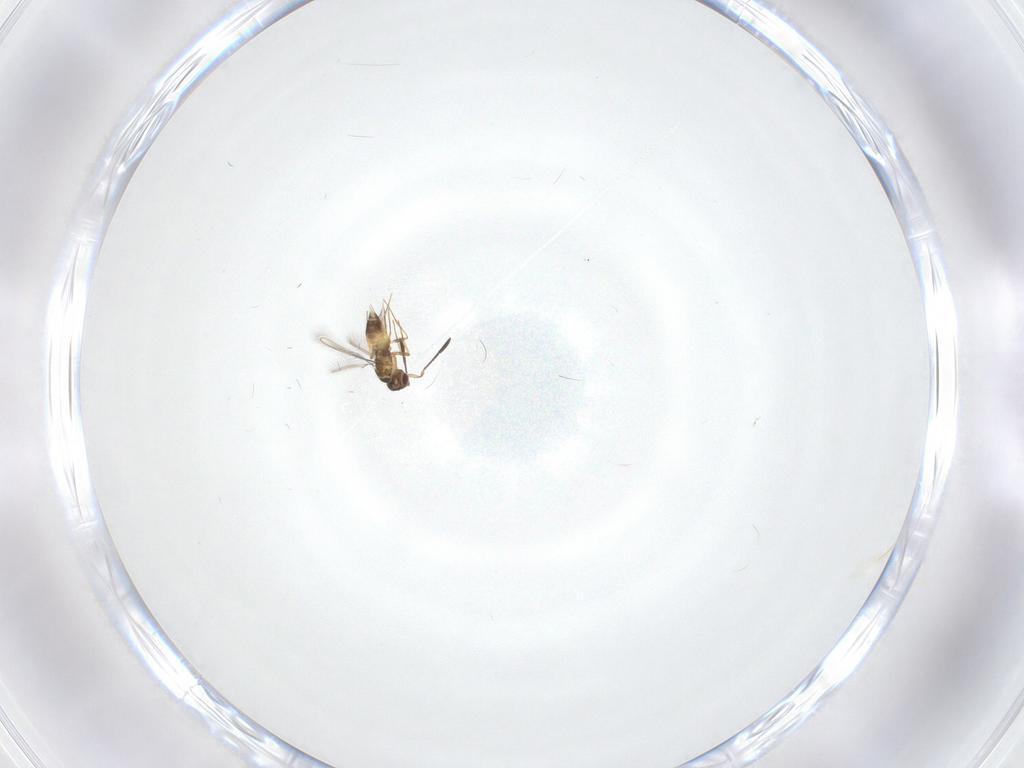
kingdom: Animalia
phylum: Arthropoda
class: Insecta
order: Hymenoptera
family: Mymaridae
